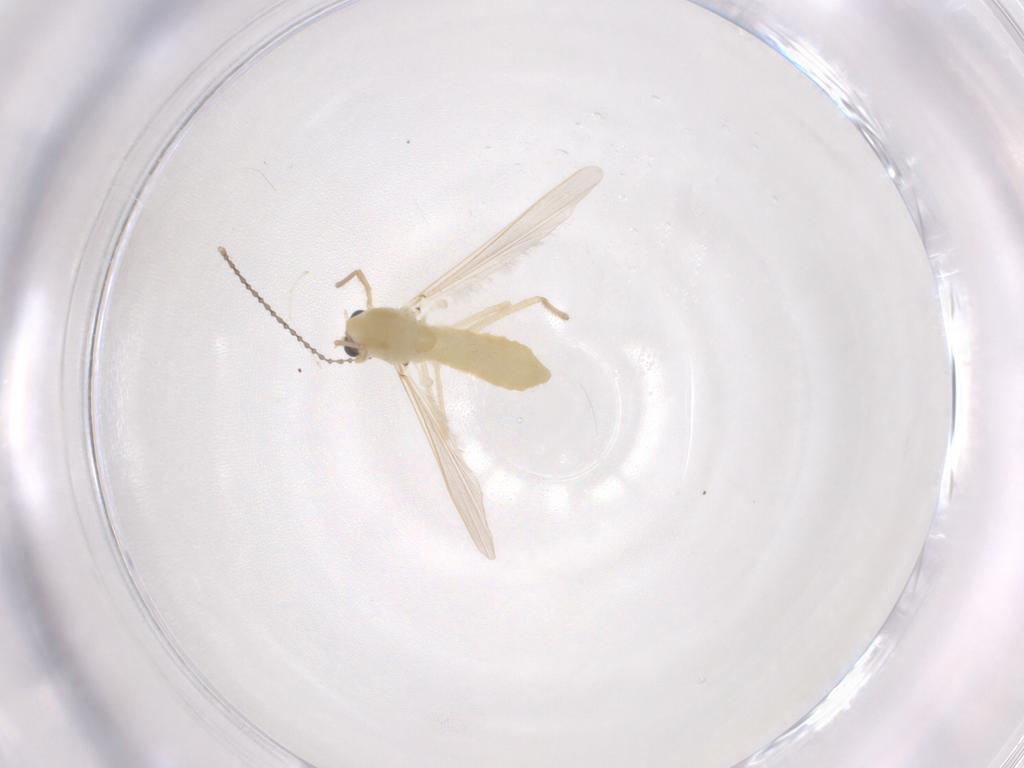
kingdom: Animalia
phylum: Arthropoda
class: Insecta
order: Diptera
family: Chironomidae
